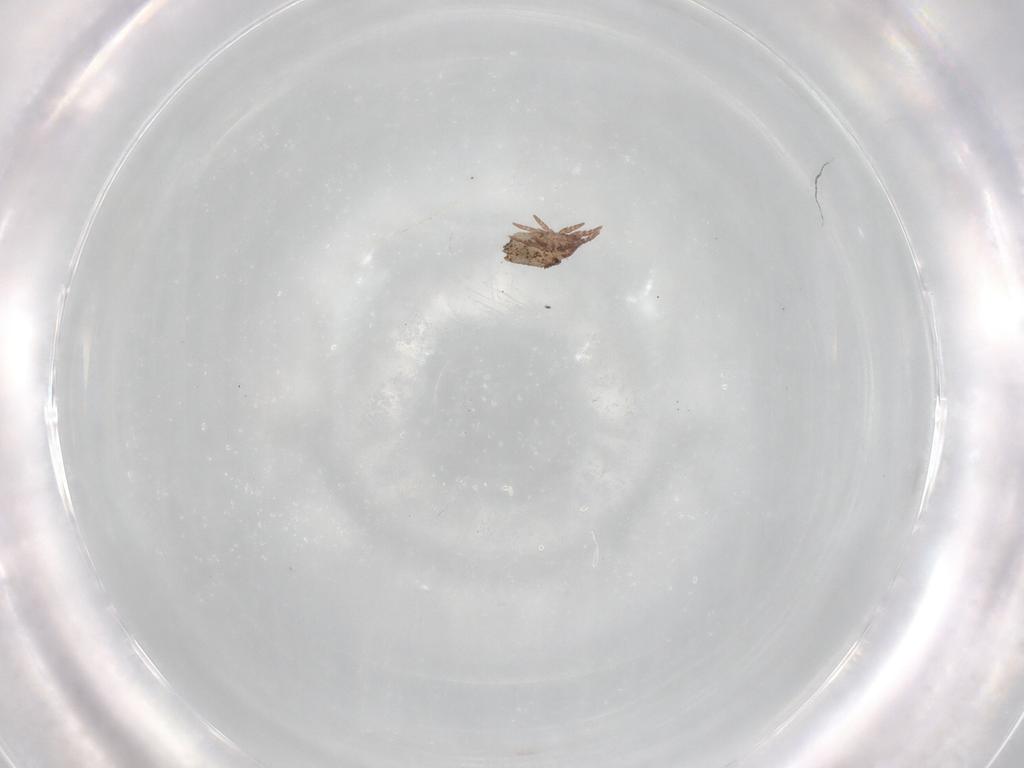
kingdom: Animalia
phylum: Arthropoda
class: Arachnida
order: Sarcoptiformes
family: Crotoniidae
